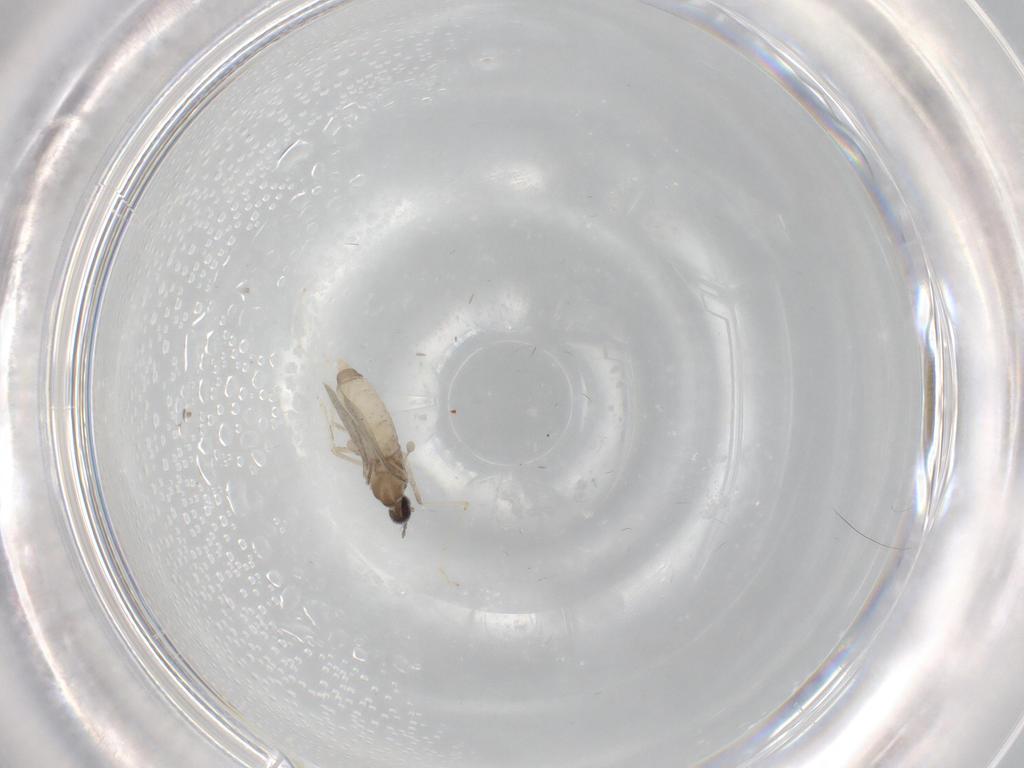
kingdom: Animalia
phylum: Arthropoda
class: Insecta
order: Diptera
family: Cecidomyiidae
